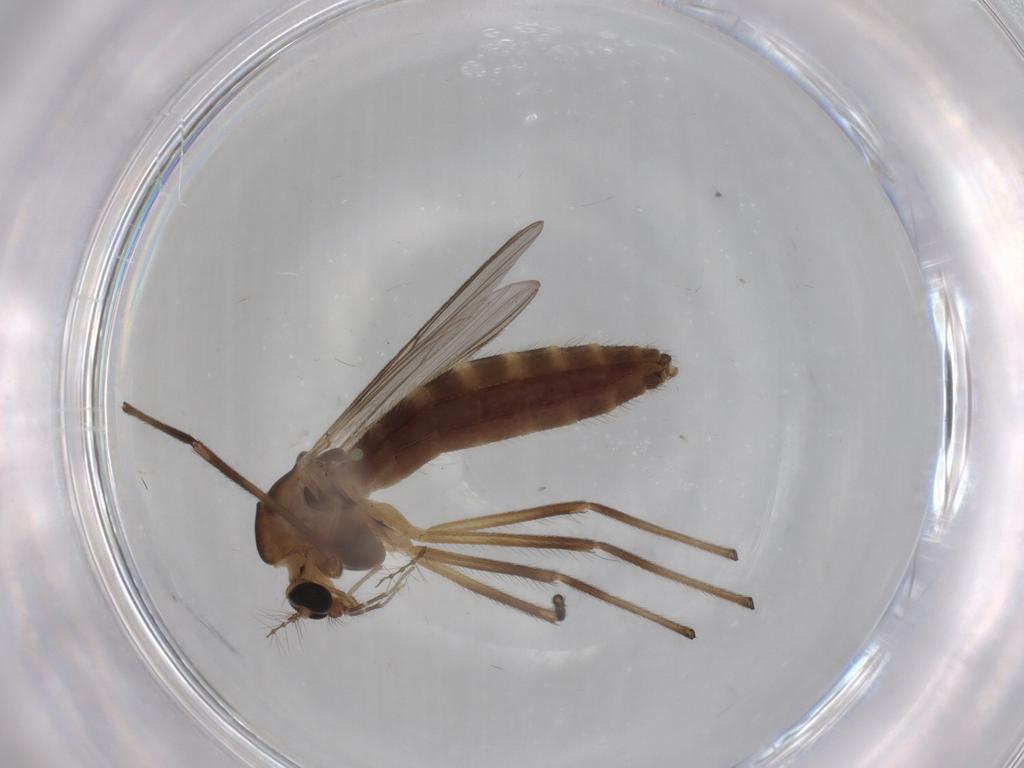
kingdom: Animalia
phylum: Arthropoda
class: Insecta
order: Diptera
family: Chironomidae
